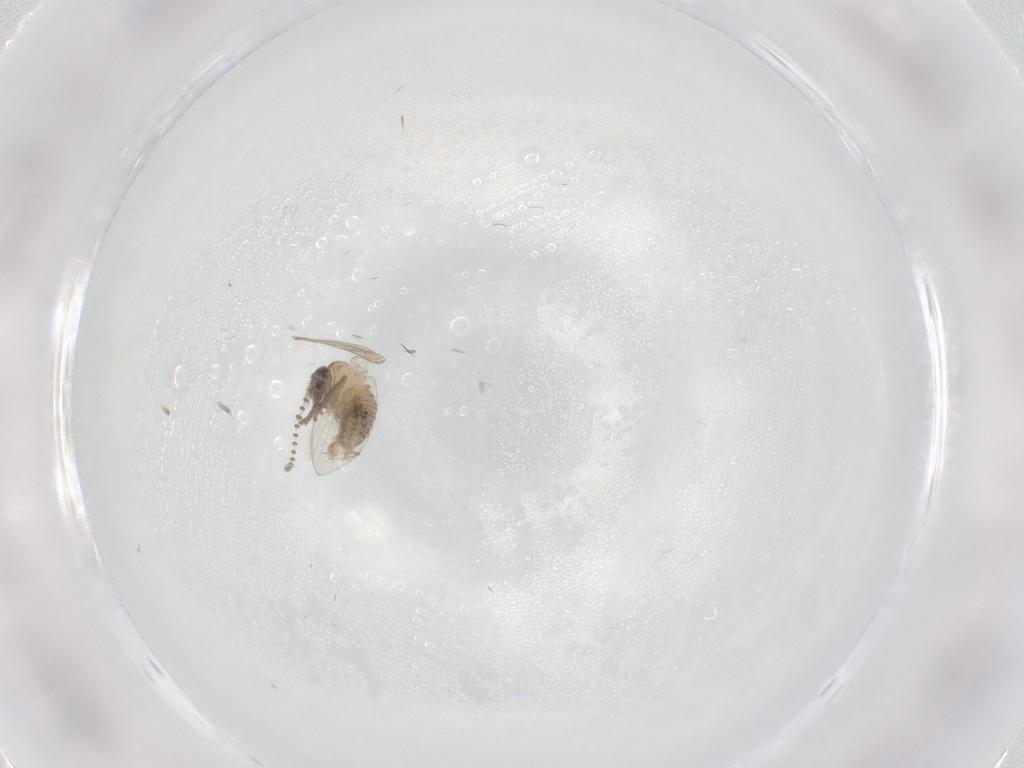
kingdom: Animalia
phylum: Arthropoda
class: Insecta
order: Diptera
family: Psychodidae
